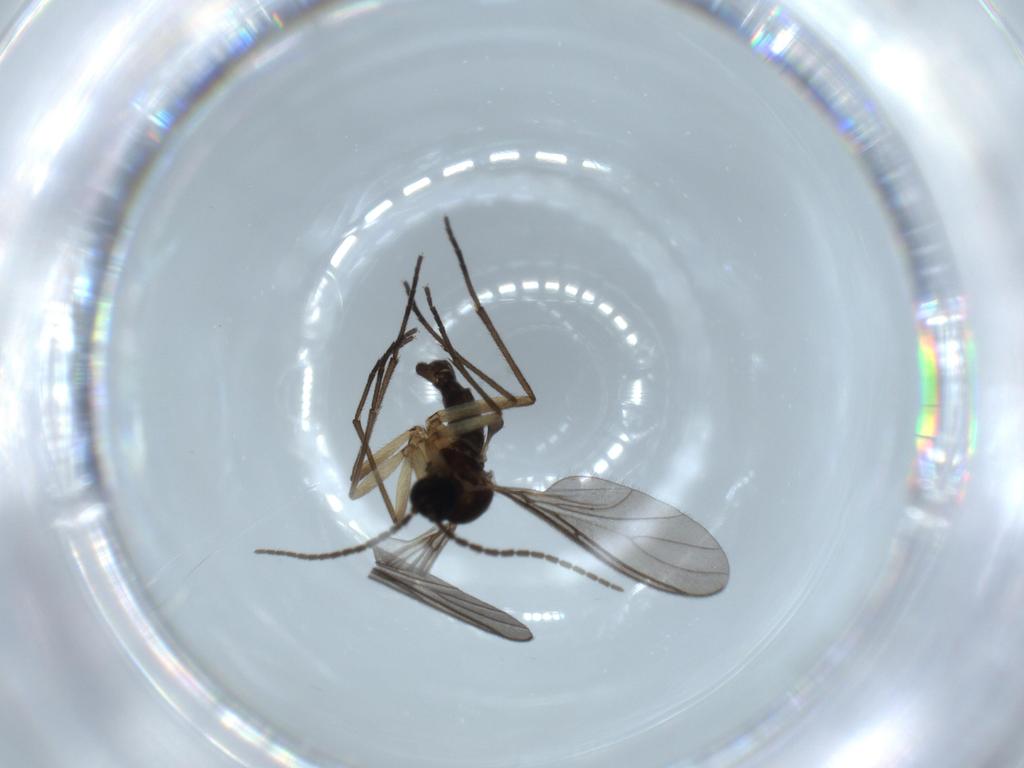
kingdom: Animalia
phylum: Arthropoda
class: Insecta
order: Diptera
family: Sciaridae
